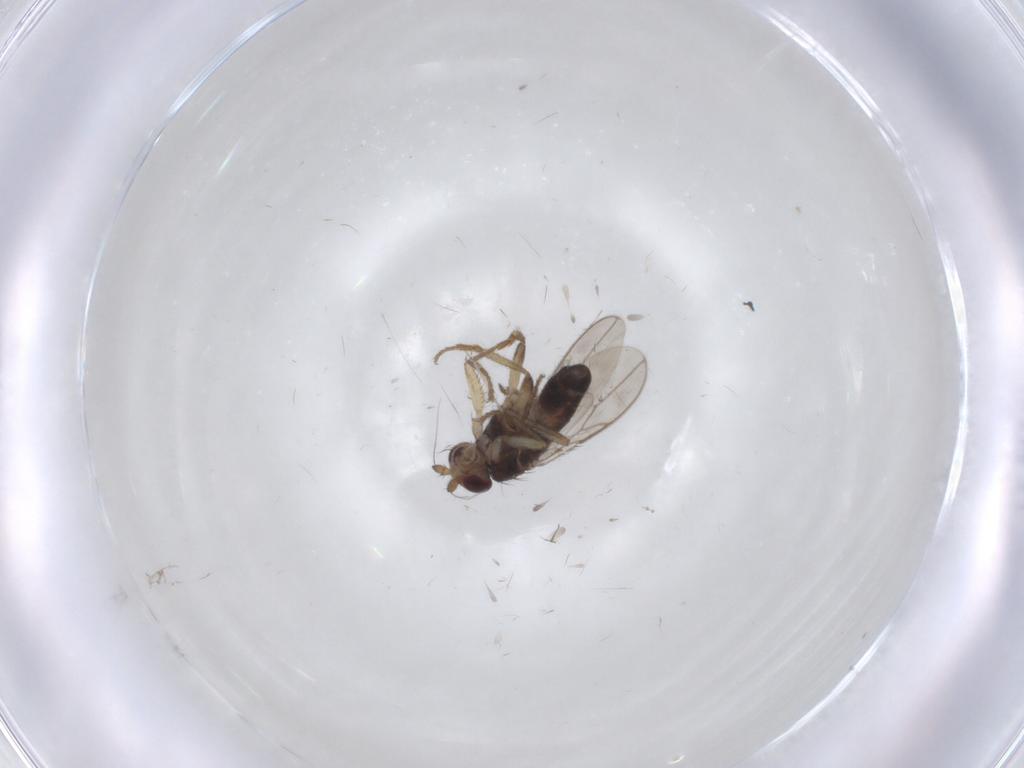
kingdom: Animalia
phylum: Arthropoda
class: Insecta
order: Diptera
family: Sphaeroceridae
